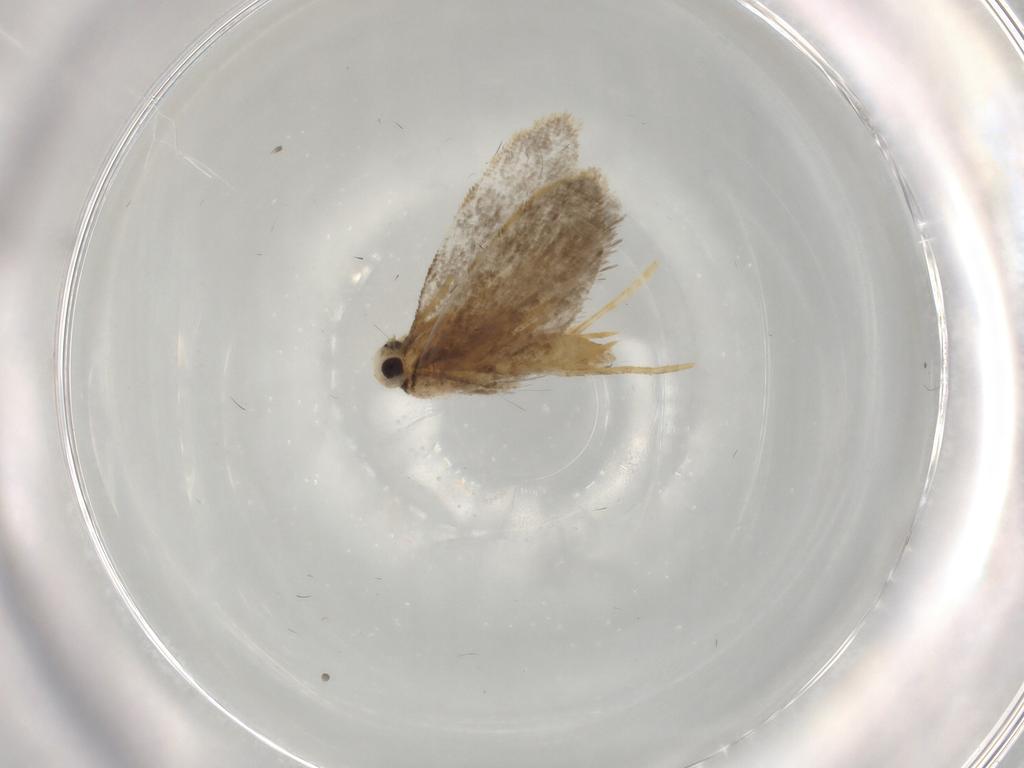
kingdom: Animalia
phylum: Arthropoda
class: Insecta
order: Lepidoptera
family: Psychidae
